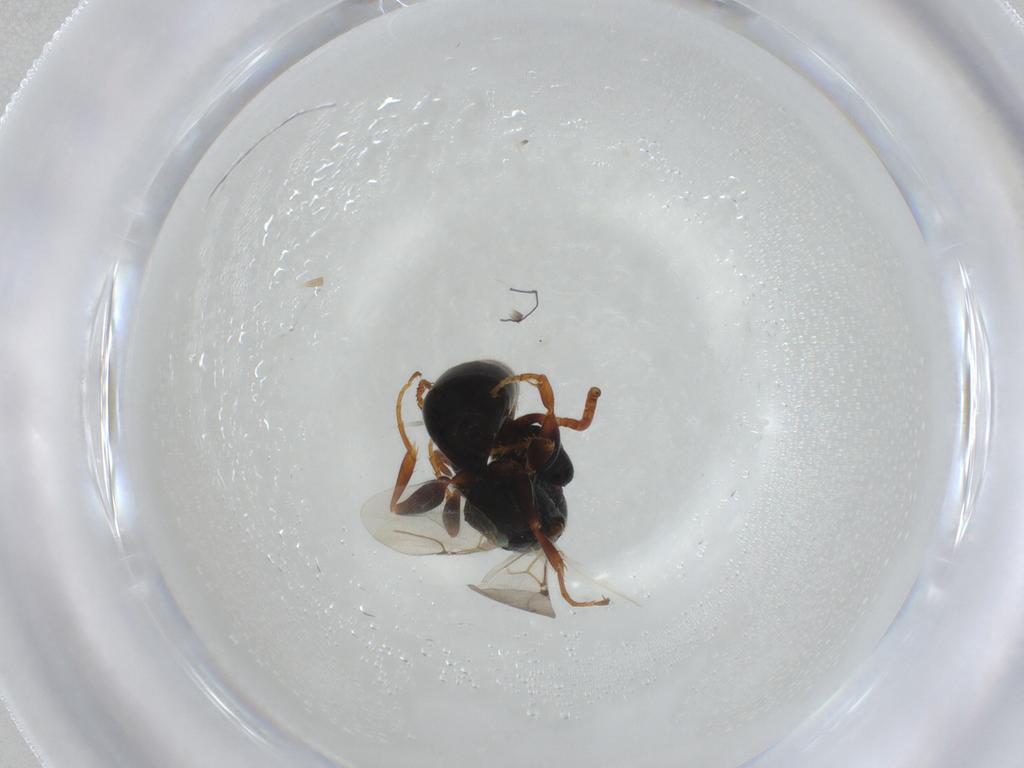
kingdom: Animalia
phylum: Arthropoda
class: Insecta
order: Hymenoptera
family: Bethylidae
